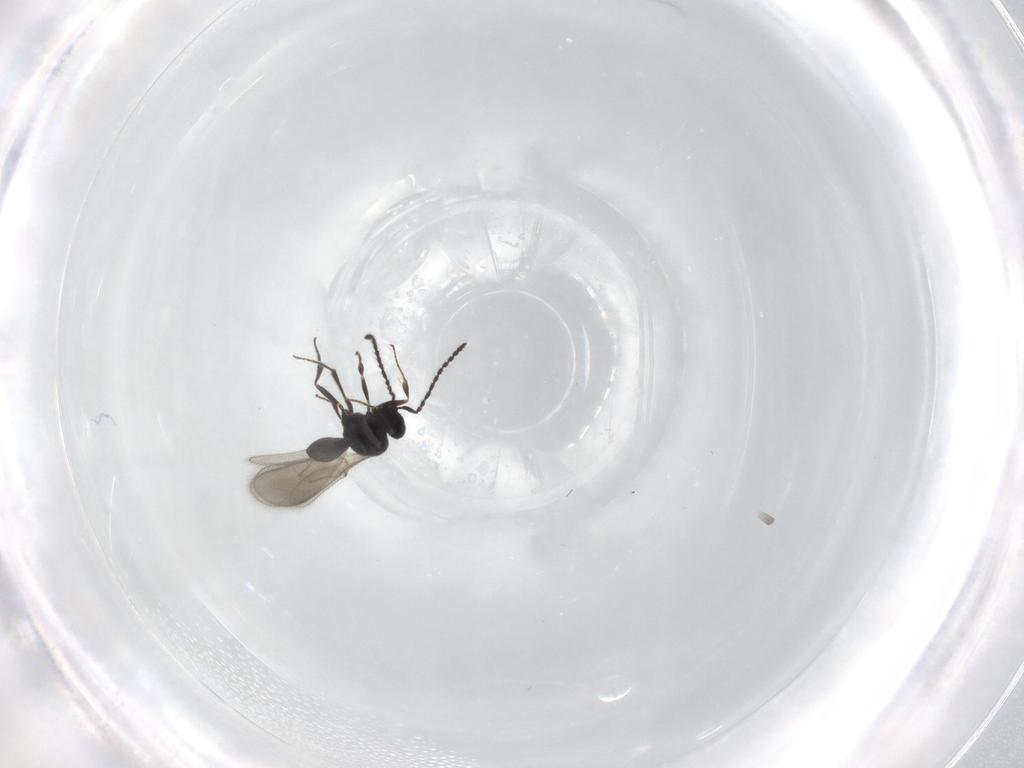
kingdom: Animalia
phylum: Arthropoda
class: Insecta
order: Hymenoptera
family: Scelionidae
